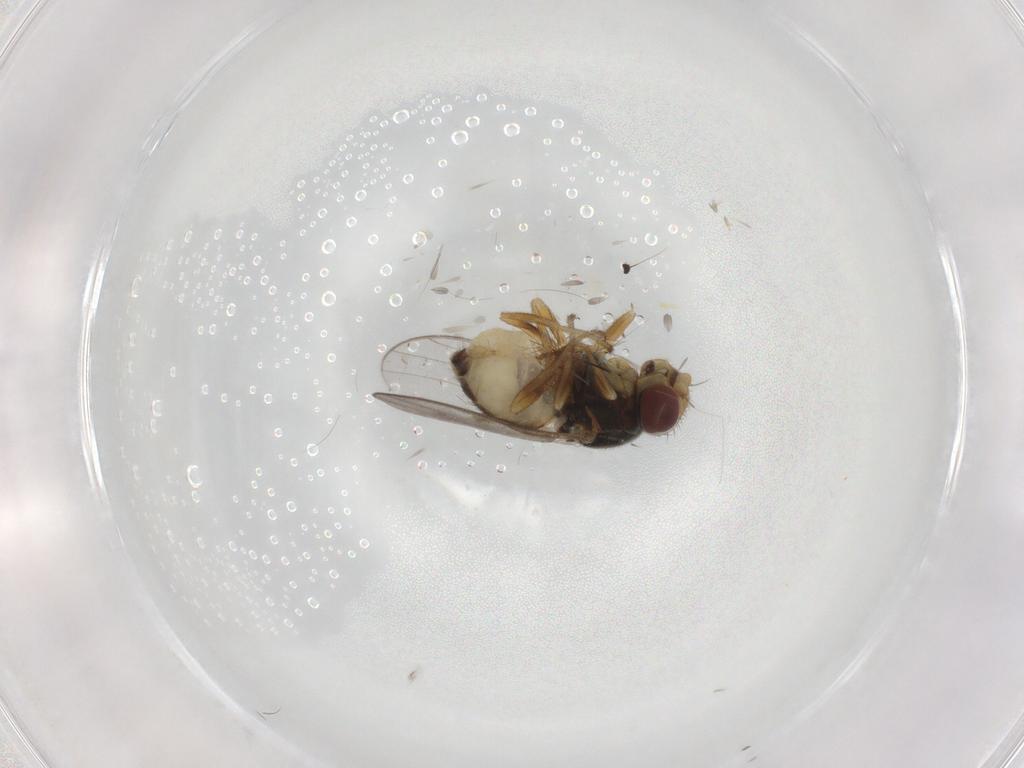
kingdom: Animalia
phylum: Arthropoda
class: Insecta
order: Diptera
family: Chloropidae
